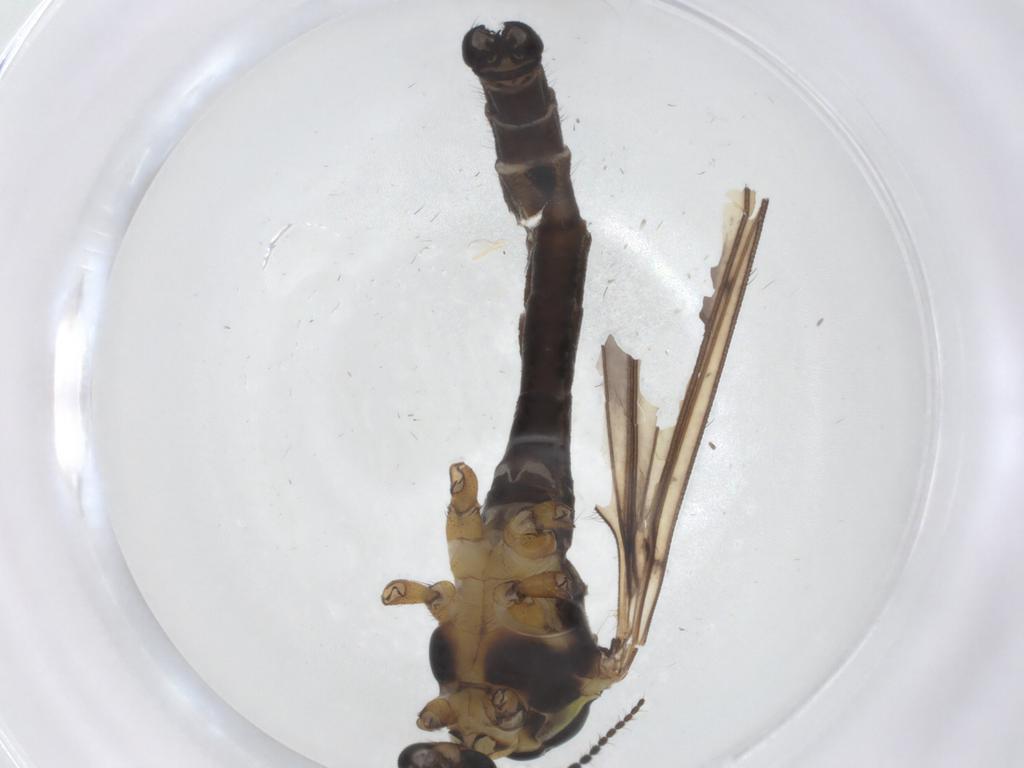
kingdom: Animalia
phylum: Arthropoda
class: Insecta
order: Diptera
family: Limoniidae
